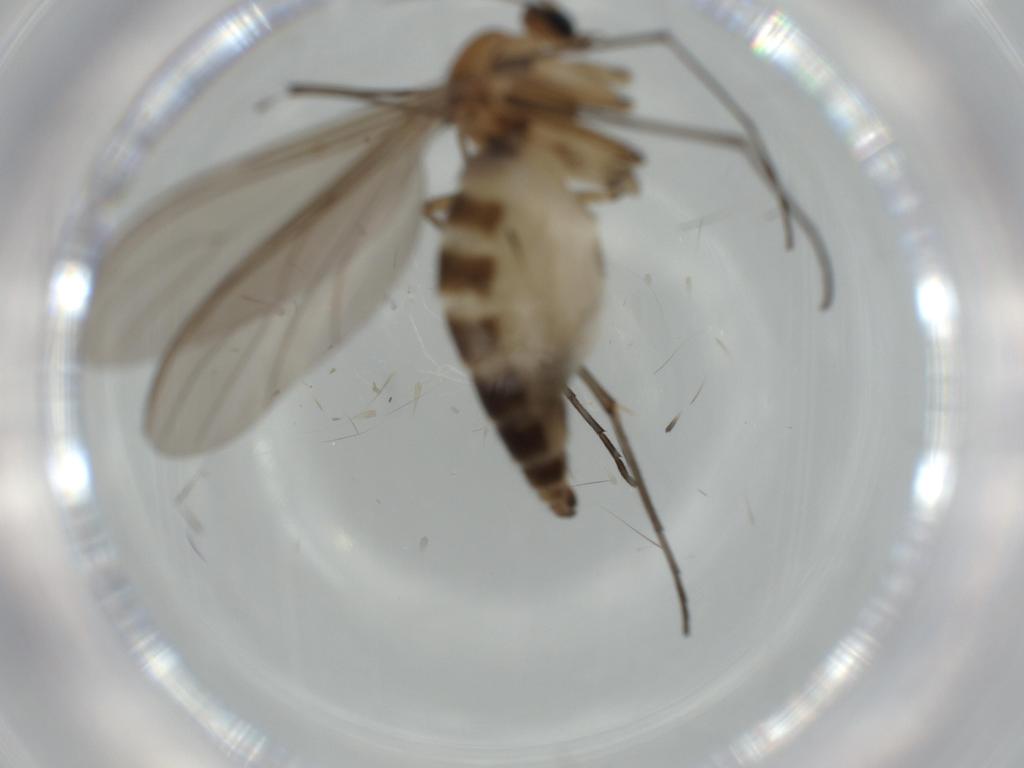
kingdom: Animalia
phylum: Arthropoda
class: Insecta
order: Diptera
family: Sciaridae
